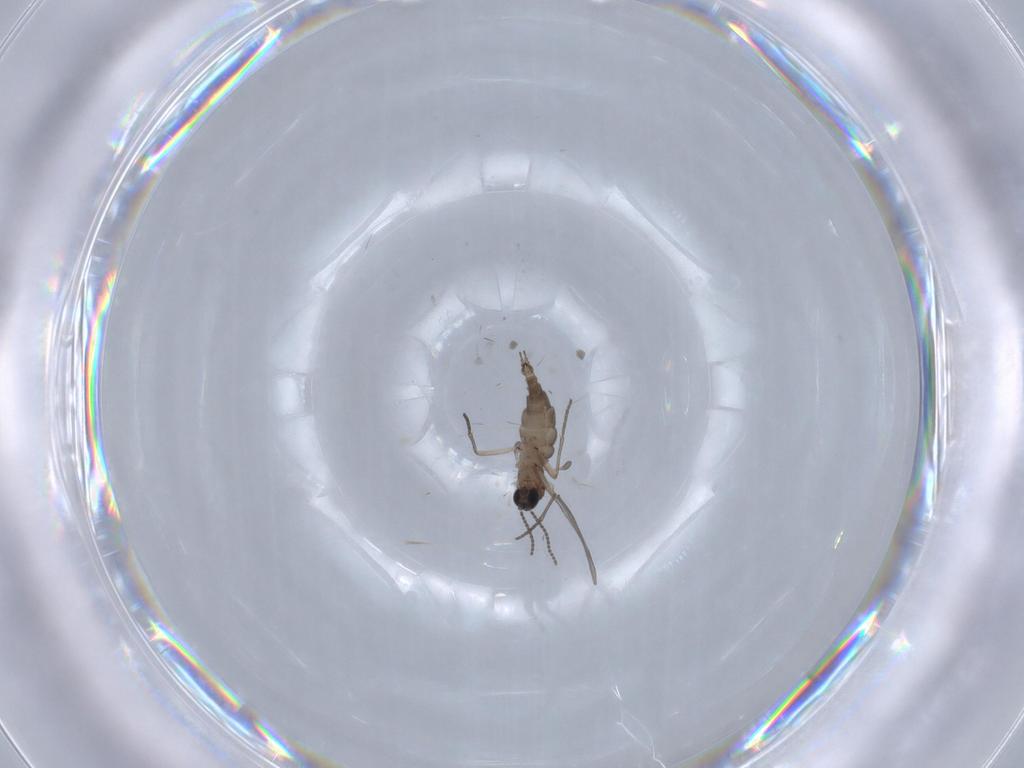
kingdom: Animalia
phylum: Arthropoda
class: Insecta
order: Diptera
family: Sciaridae
